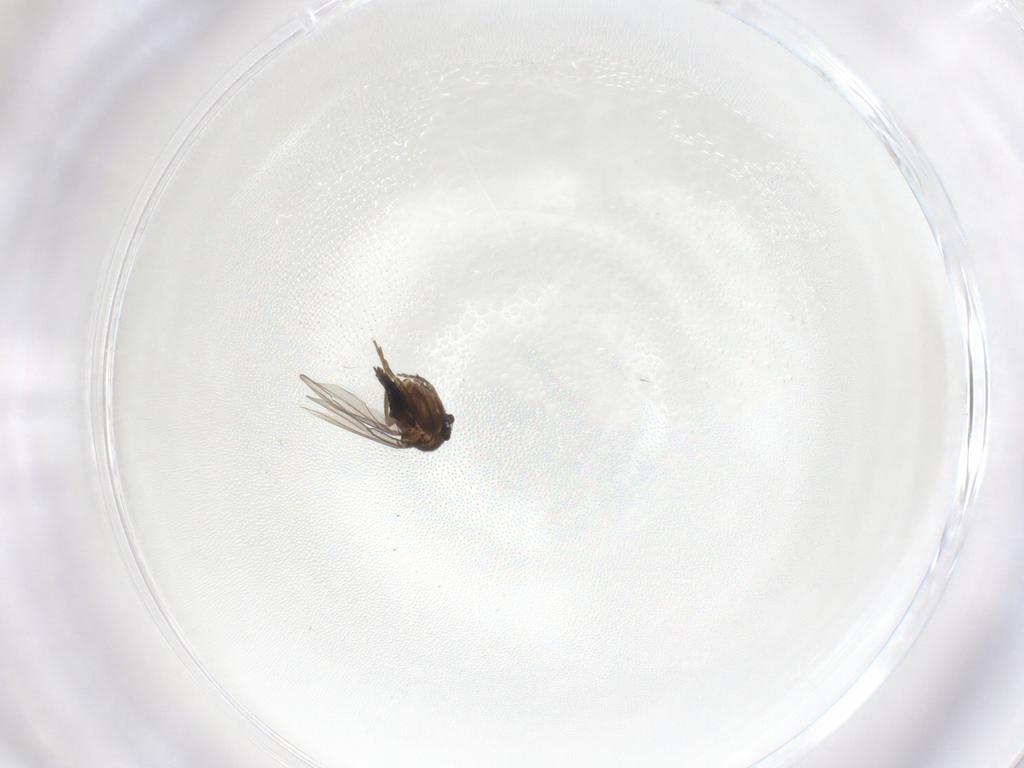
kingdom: Animalia
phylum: Arthropoda
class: Insecta
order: Diptera
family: Limoniidae
